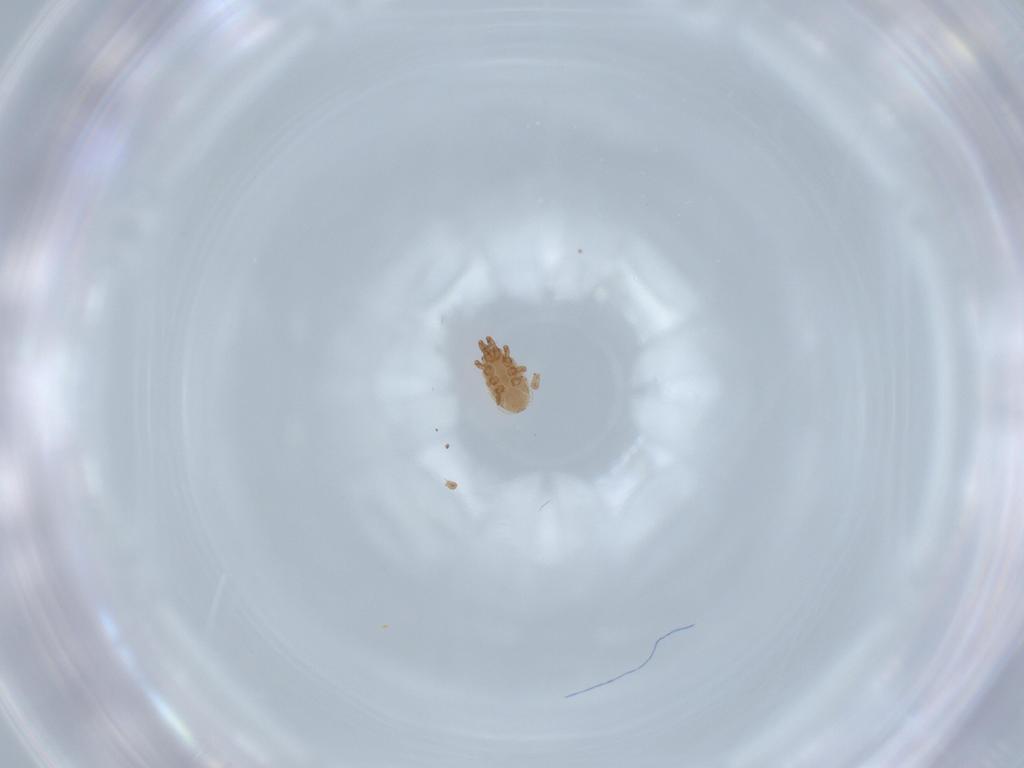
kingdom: Animalia
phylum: Arthropoda
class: Arachnida
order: Mesostigmata
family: Dinychidae
